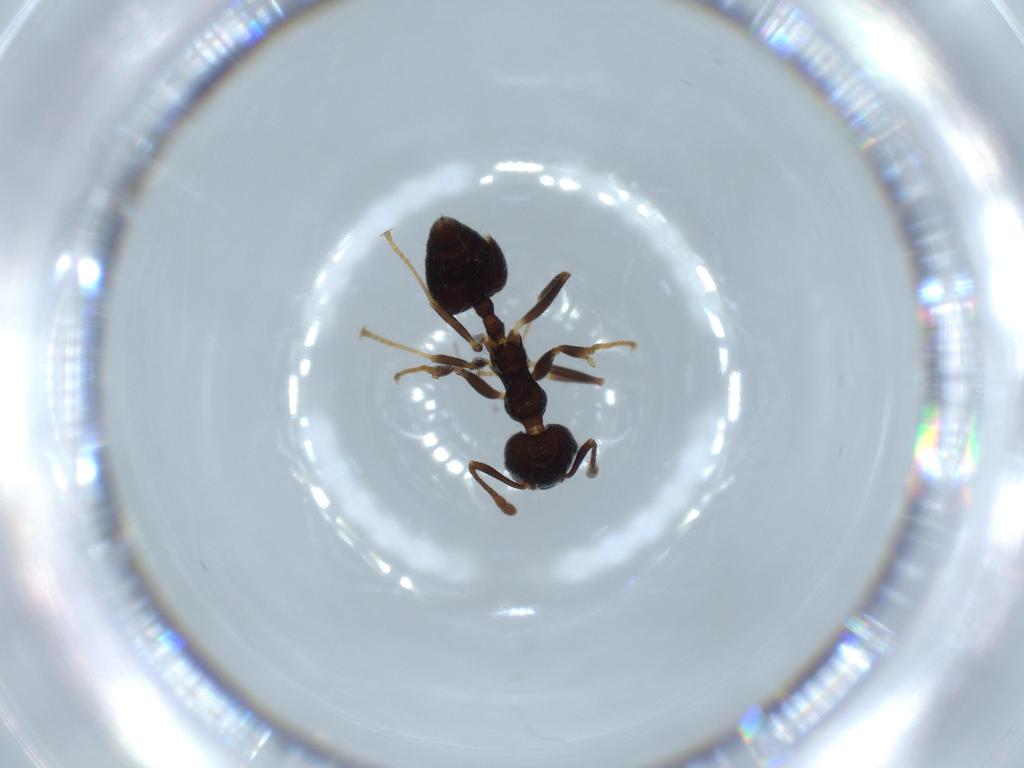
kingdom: Animalia
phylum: Arthropoda
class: Insecta
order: Hymenoptera
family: Formicidae
